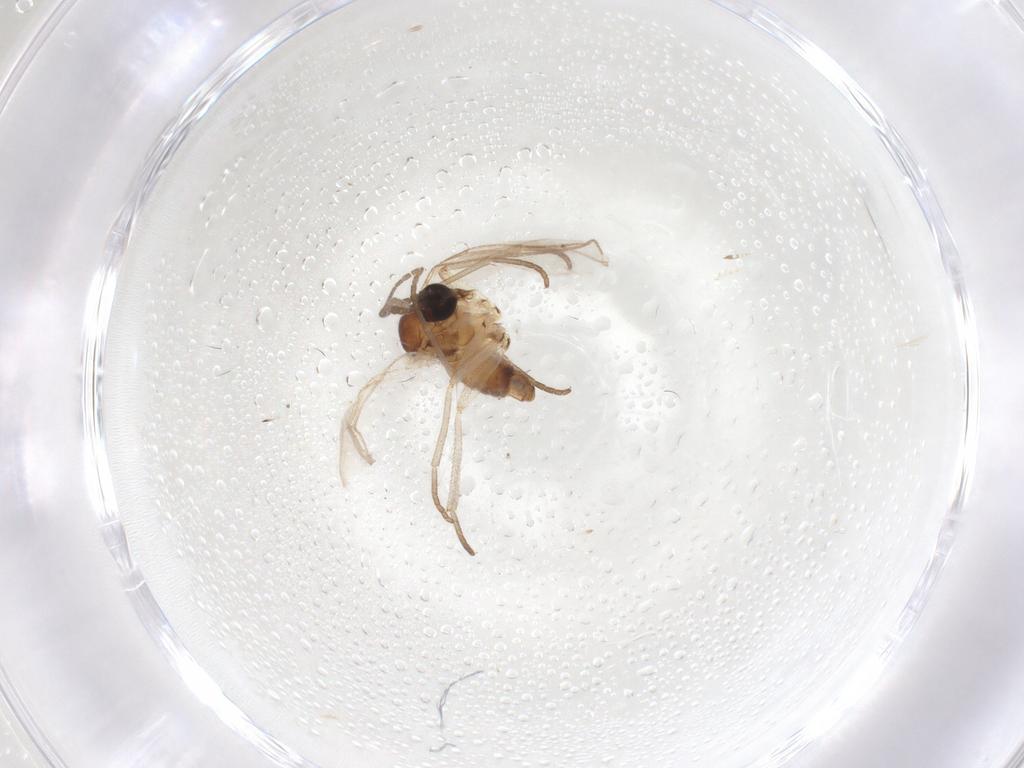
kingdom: Animalia
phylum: Arthropoda
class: Insecta
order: Diptera
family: Sciaridae
